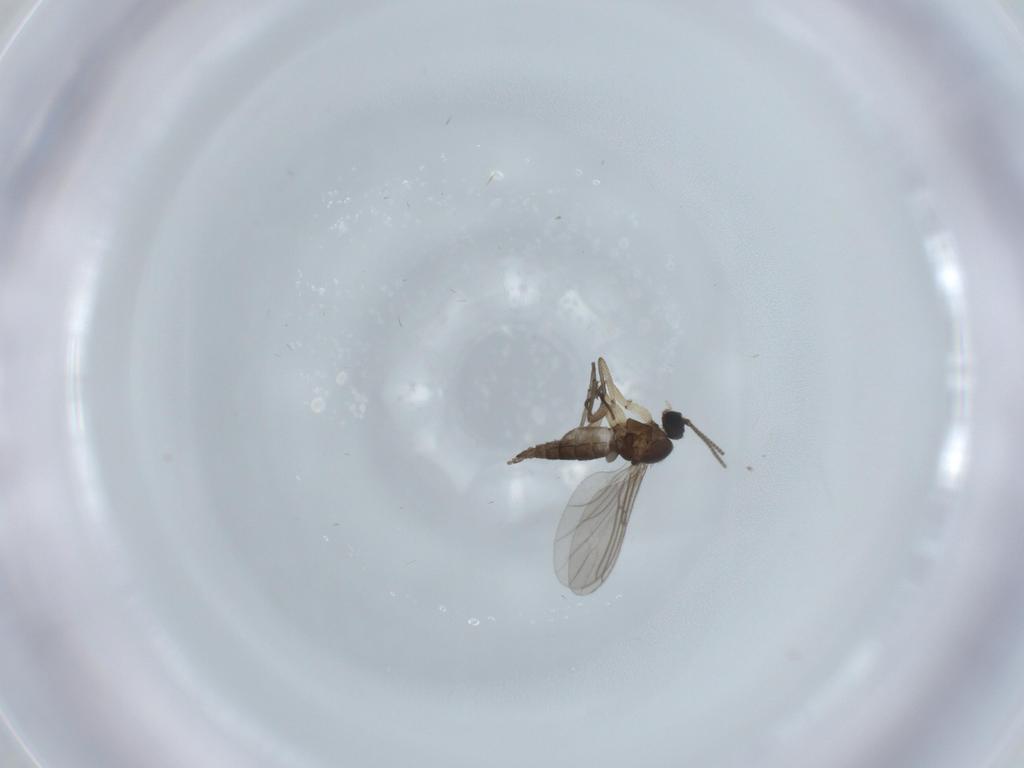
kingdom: Animalia
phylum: Arthropoda
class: Insecta
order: Diptera
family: Sciaridae
